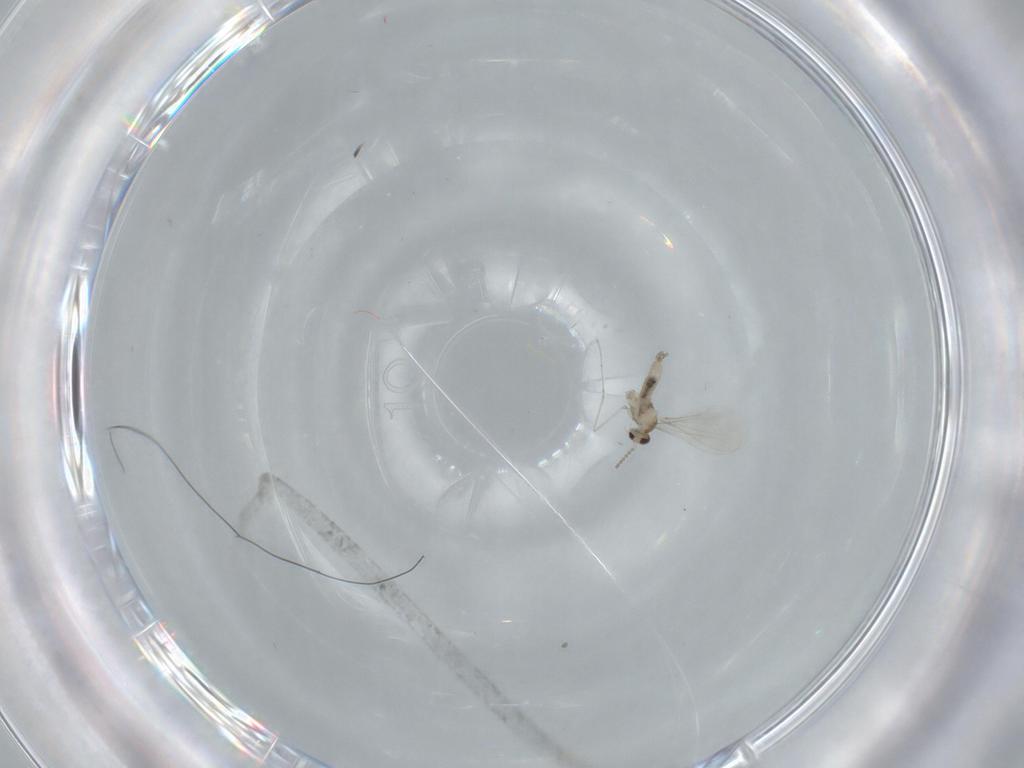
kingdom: Animalia
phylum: Arthropoda
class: Insecta
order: Diptera
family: Cecidomyiidae
